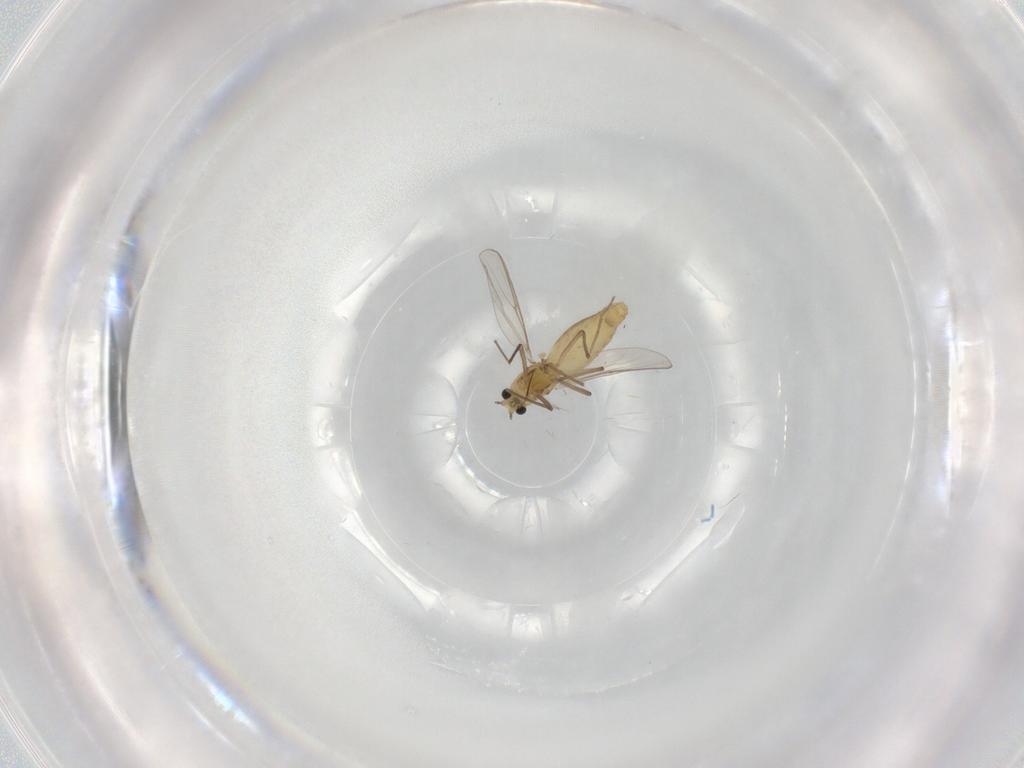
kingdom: Animalia
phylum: Arthropoda
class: Insecta
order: Diptera
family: Chironomidae
